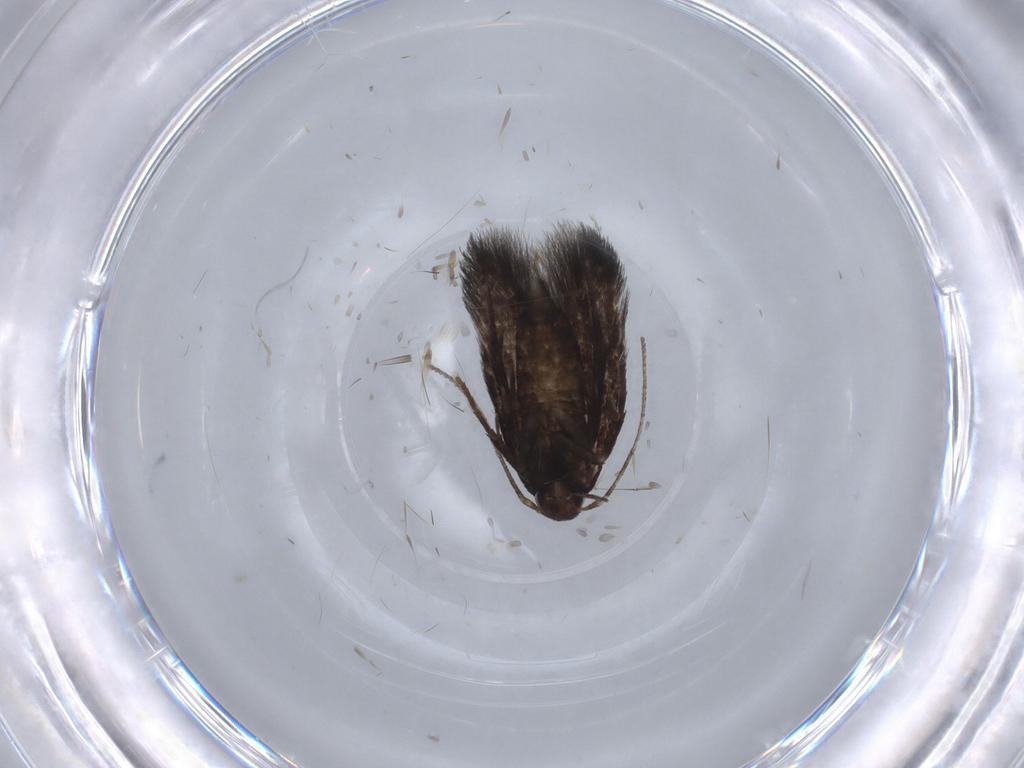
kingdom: Animalia
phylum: Arthropoda
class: Insecta
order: Lepidoptera
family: Gelechiidae
